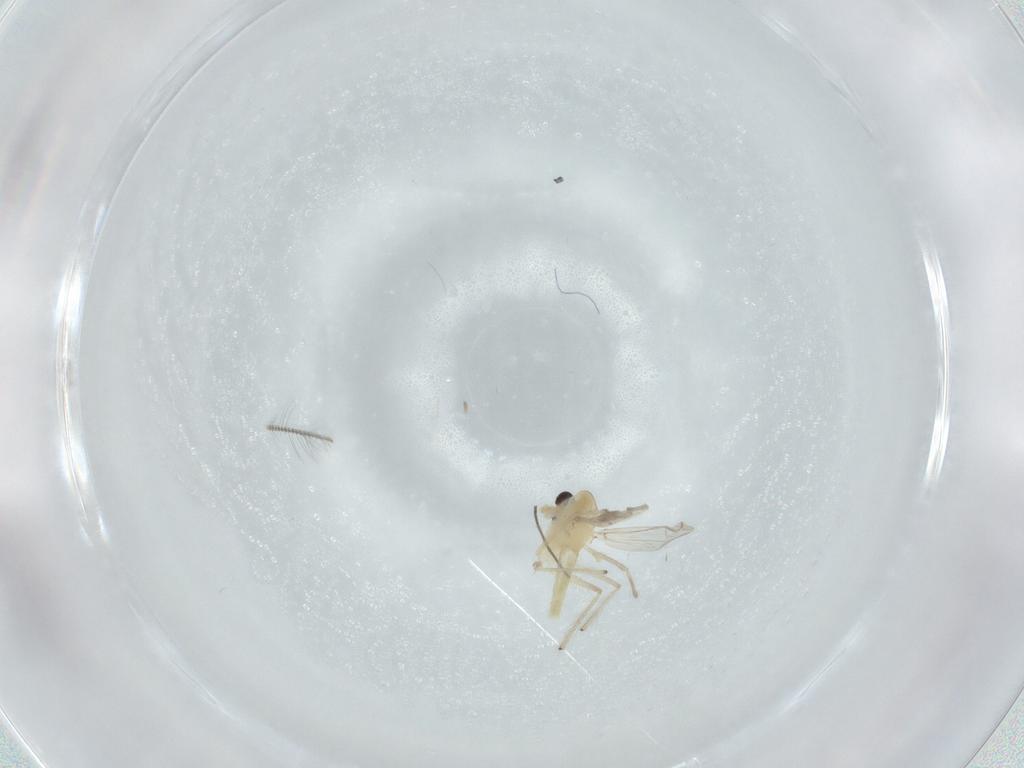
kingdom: Animalia
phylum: Arthropoda
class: Insecta
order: Diptera
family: Chironomidae
